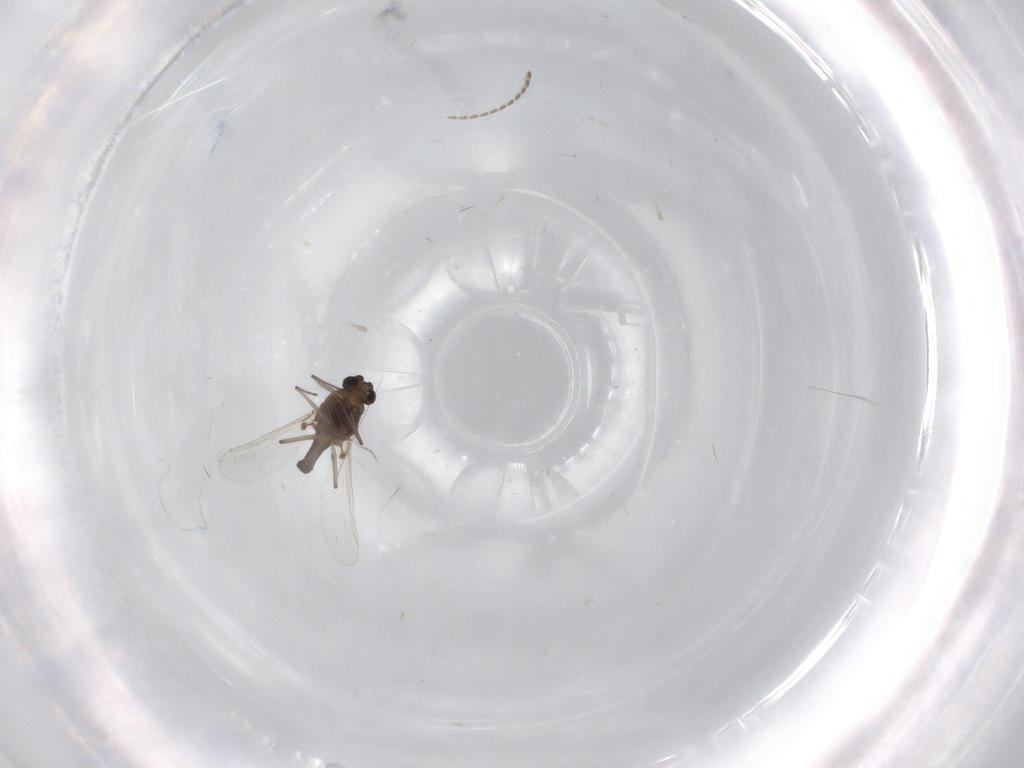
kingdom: Animalia
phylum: Arthropoda
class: Insecta
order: Diptera
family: Chironomidae
